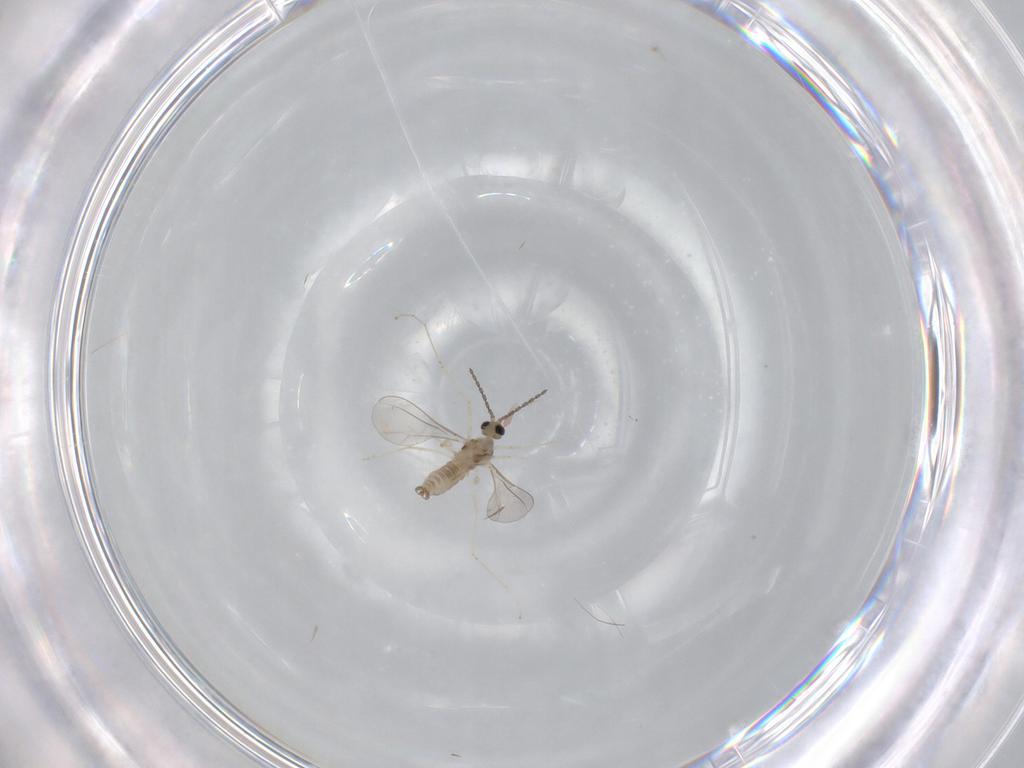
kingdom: Animalia
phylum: Arthropoda
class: Insecta
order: Diptera
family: Cecidomyiidae
